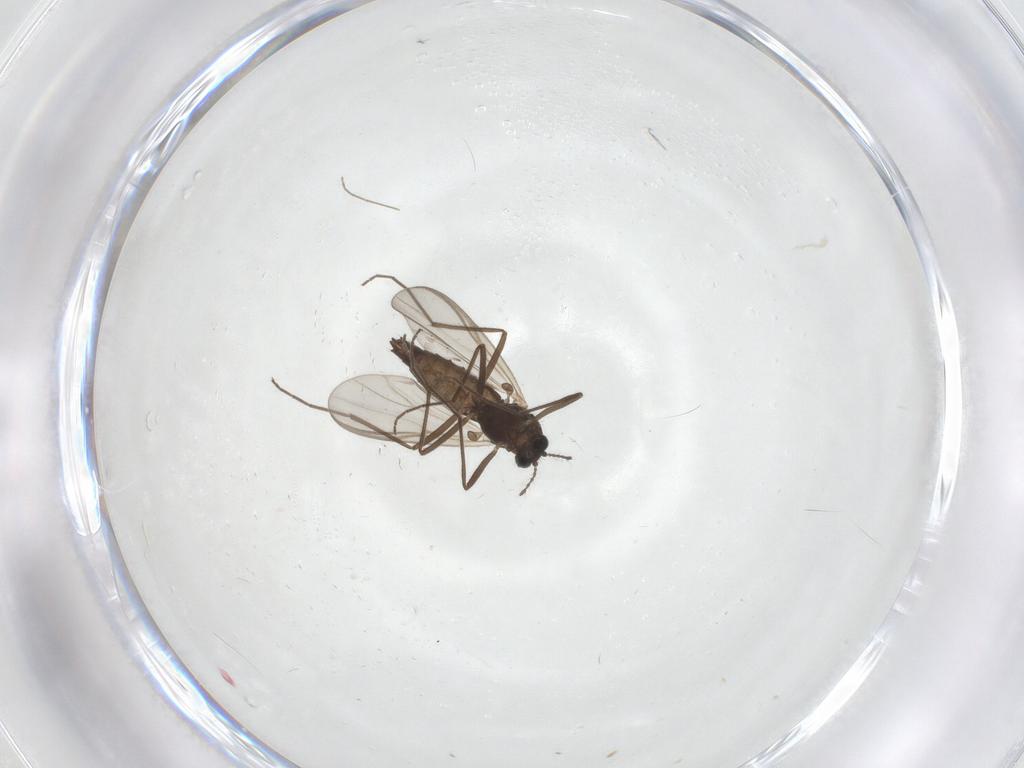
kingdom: Animalia
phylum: Arthropoda
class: Insecta
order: Diptera
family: Chironomidae
